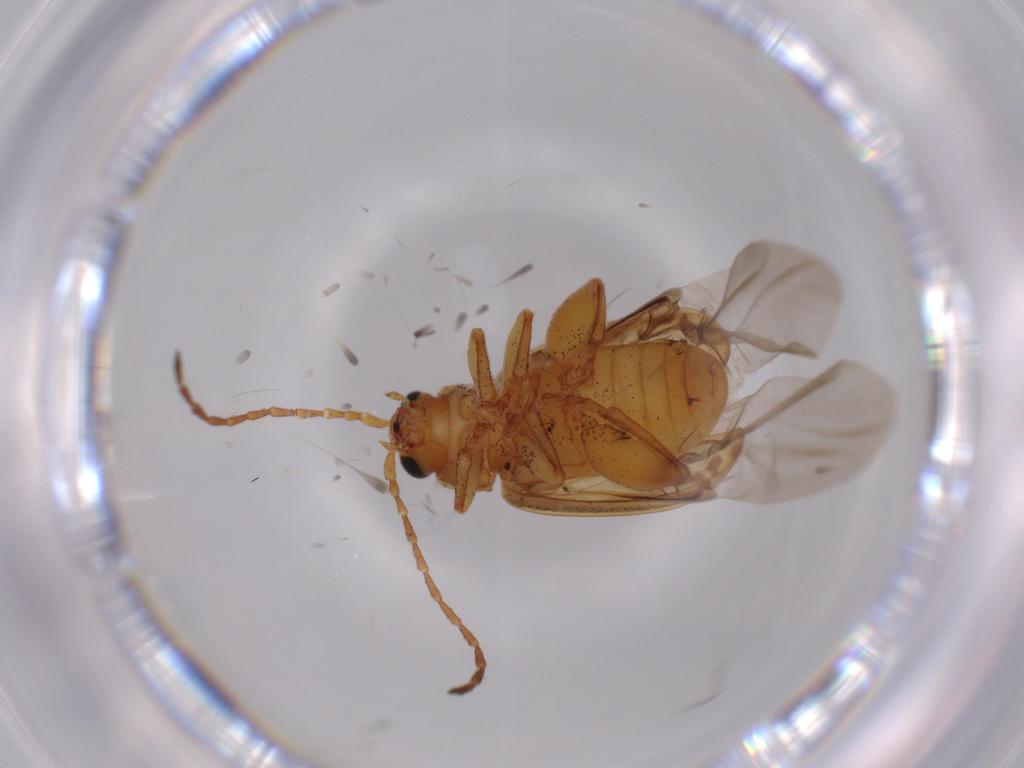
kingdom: Animalia
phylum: Arthropoda
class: Insecta
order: Coleoptera
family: Chrysomelidae
